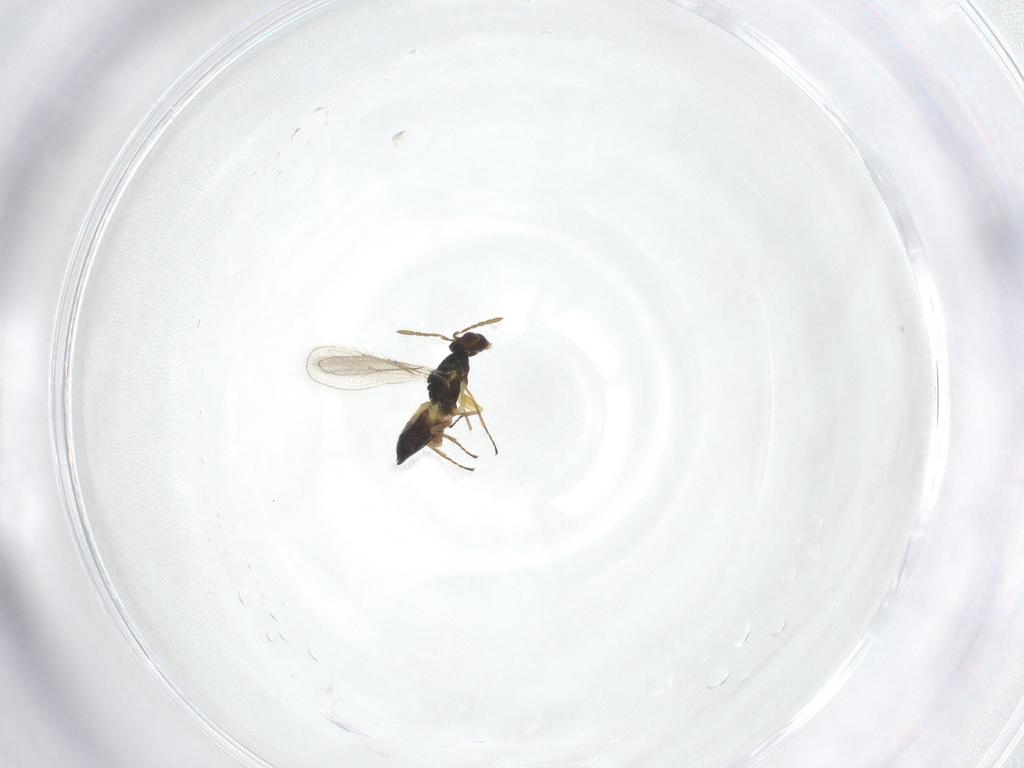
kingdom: Animalia
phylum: Arthropoda
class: Insecta
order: Hymenoptera
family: Eulophidae
